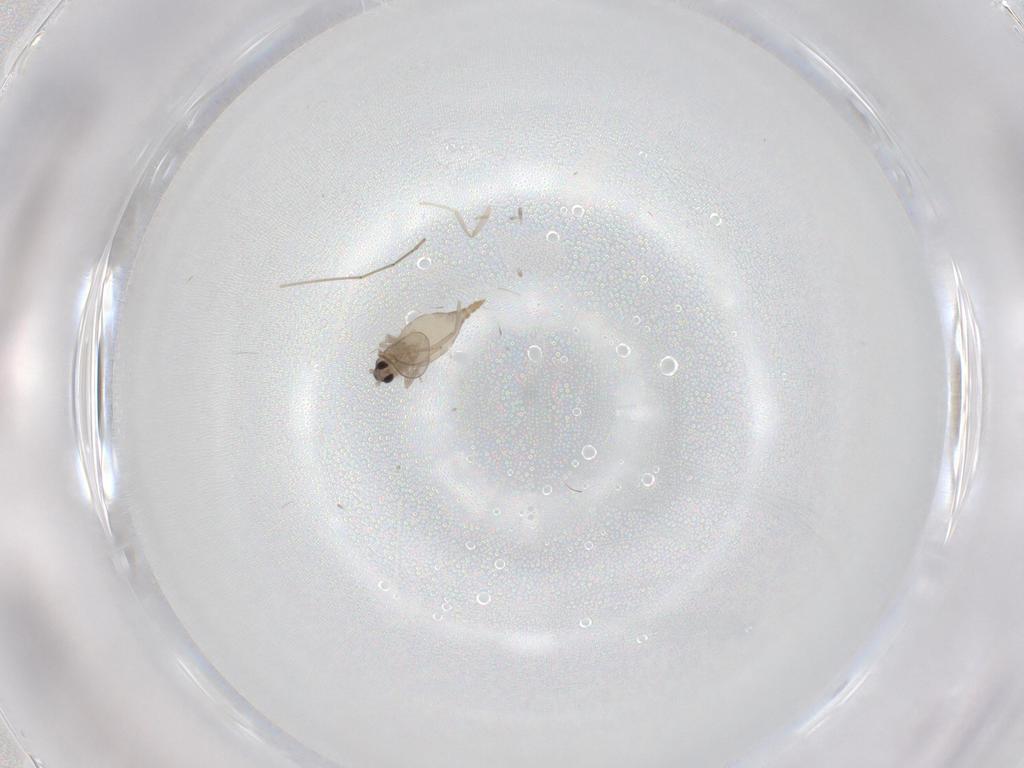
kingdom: Animalia
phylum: Arthropoda
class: Insecta
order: Diptera
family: Cecidomyiidae
